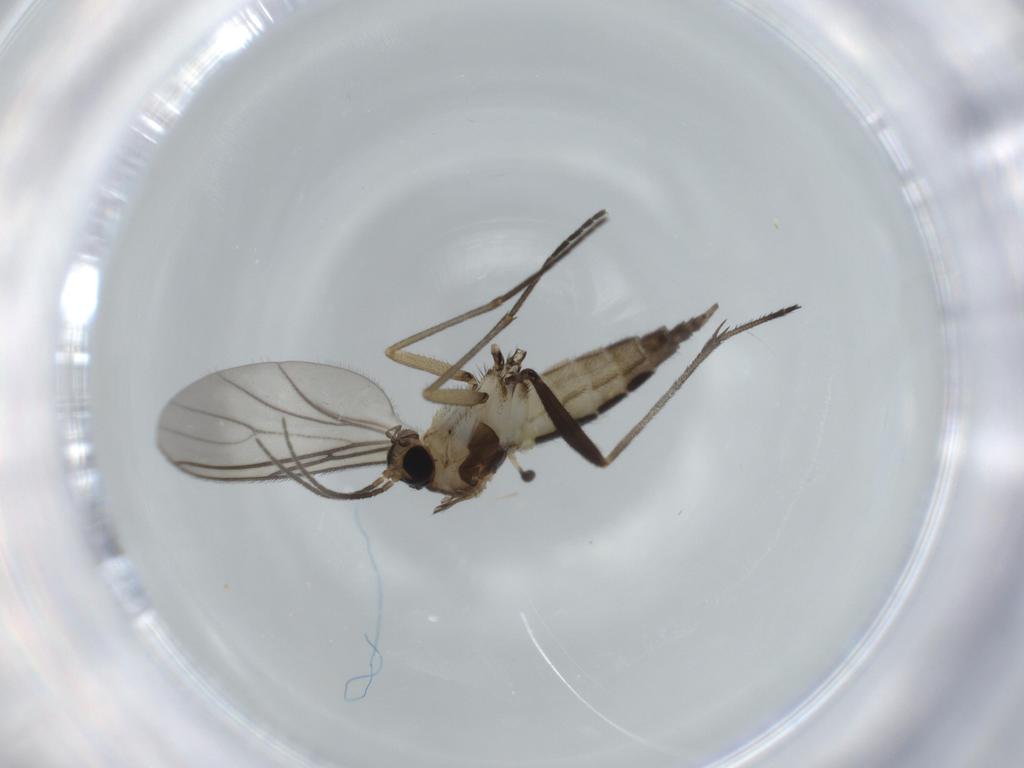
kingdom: Animalia
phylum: Arthropoda
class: Insecta
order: Diptera
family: Sciaridae
